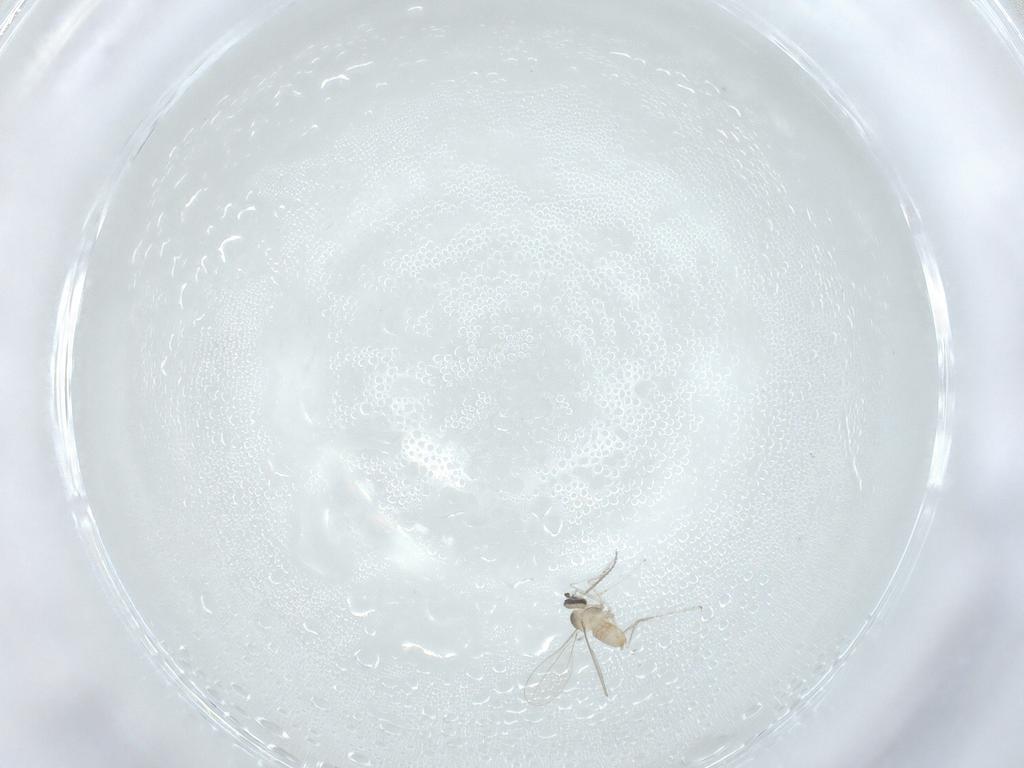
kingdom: Animalia
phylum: Arthropoda
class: Insecta
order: Diptera
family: Cecidomyiidae
